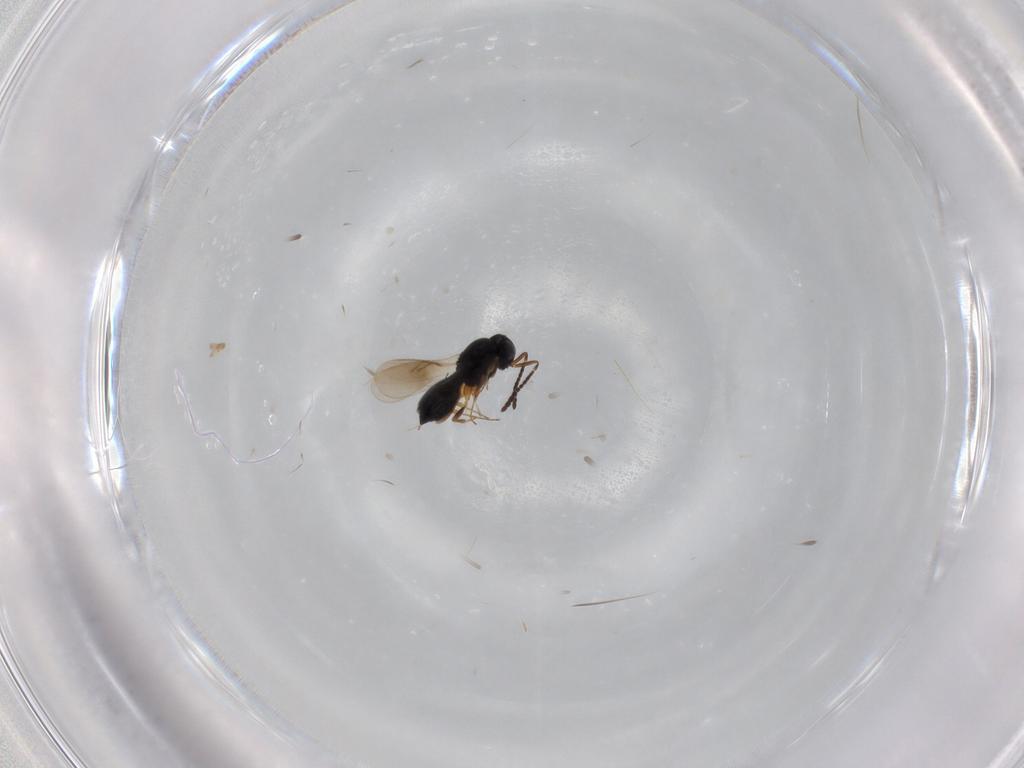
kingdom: Animalia
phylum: Arthropoda
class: Insecta
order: Hymenoptera
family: Scelionidae
